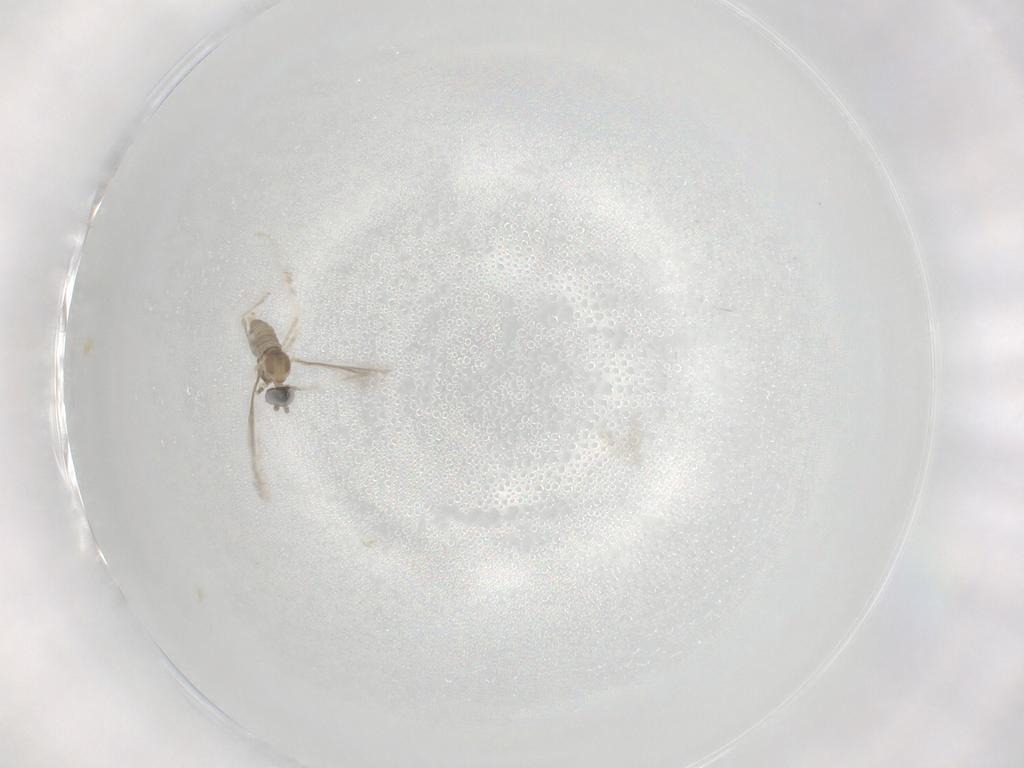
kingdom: Animalia
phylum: Arthropoda
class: Insecta
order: Diptera
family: Cecidomyiidae
